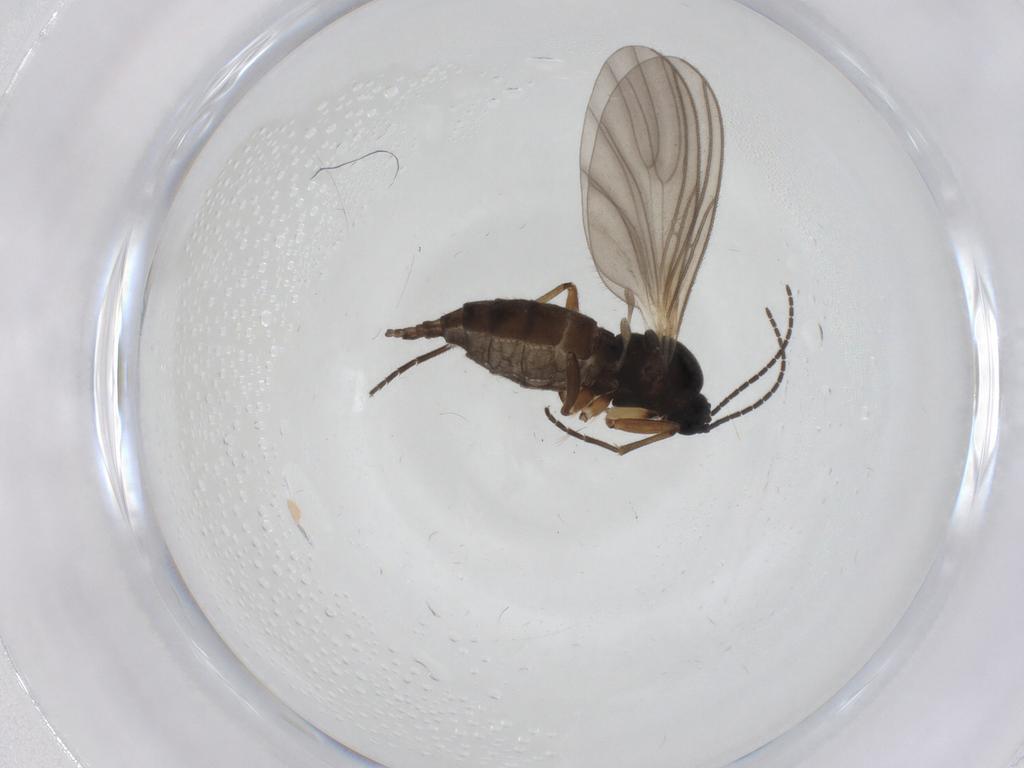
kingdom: Animalia
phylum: Arthropoda
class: Insecta
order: Diptera
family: Sciaridae
